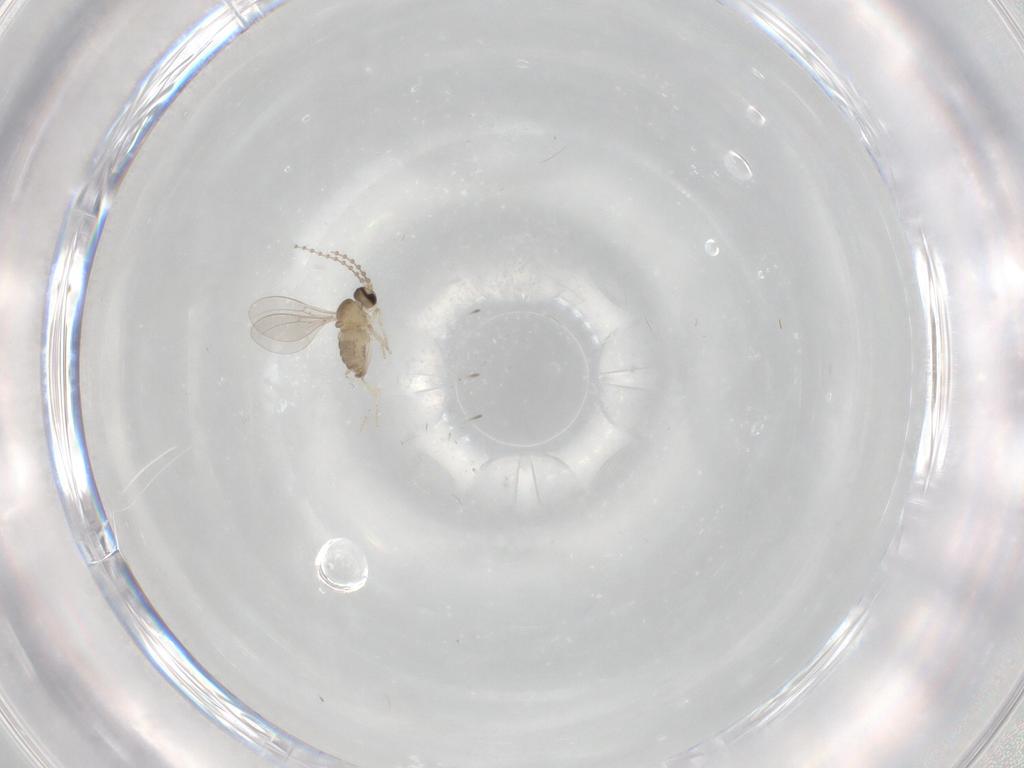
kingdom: Animalia
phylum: Arthropoda
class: Insecta
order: Diptera
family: Cecidomyiidae
